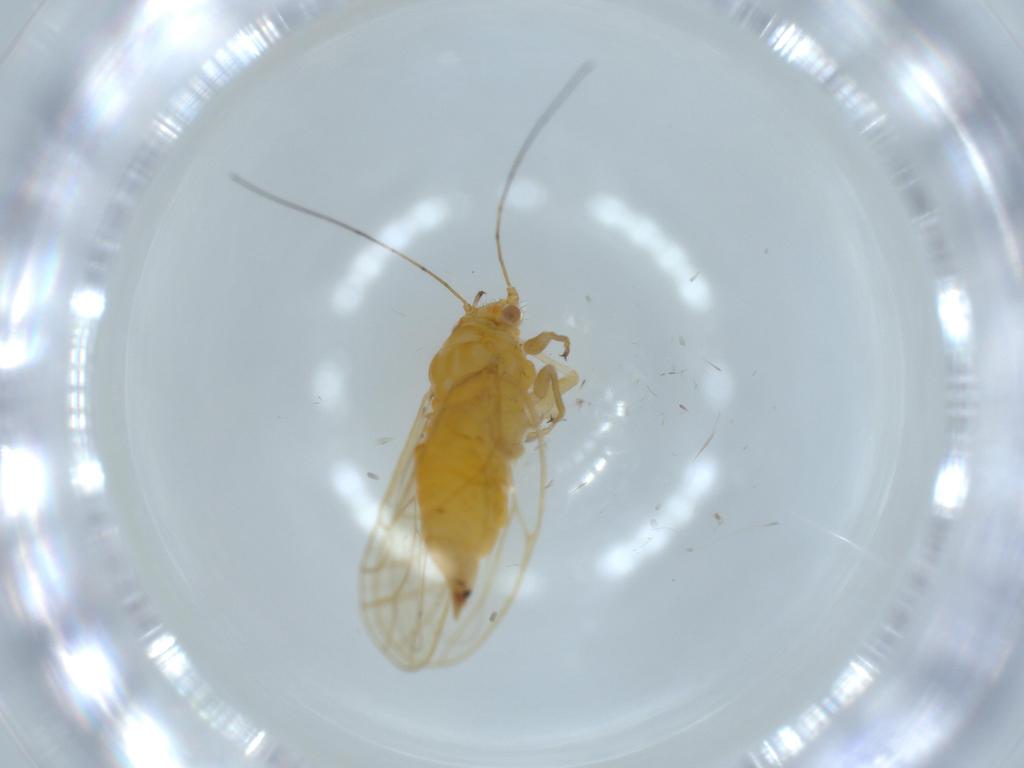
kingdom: Animalia
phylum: Arthropoda
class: Insecta
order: Hemiptera
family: Psyllidae
